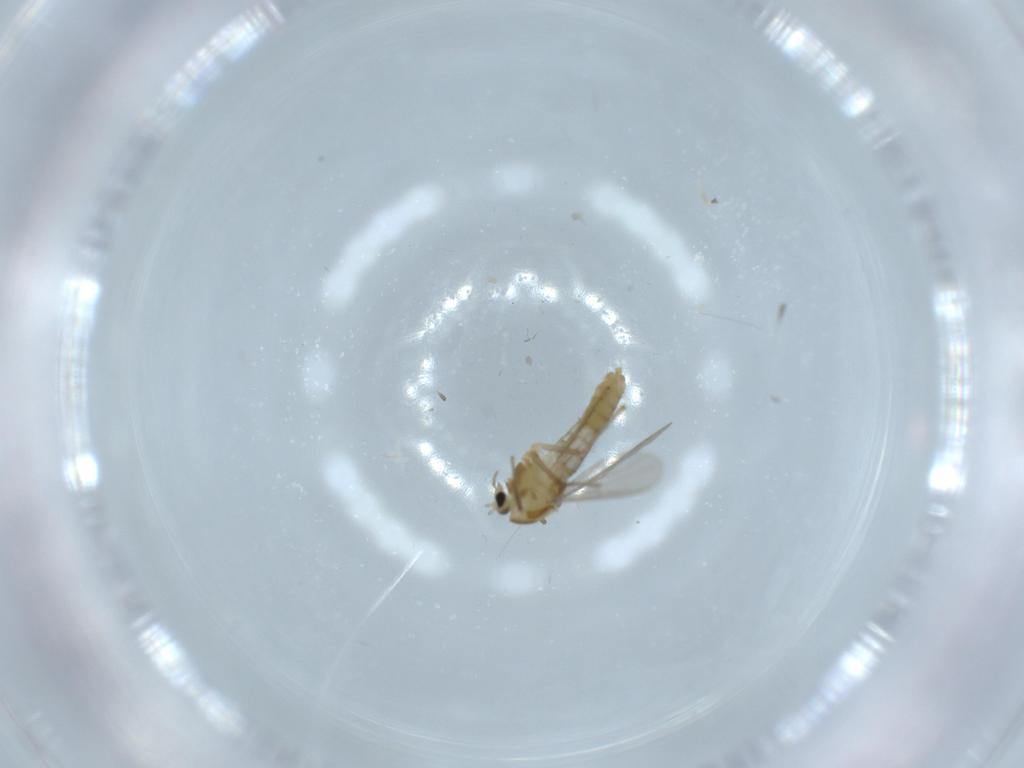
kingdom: Animalia
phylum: Arthropoda
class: Insecta
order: Diptera
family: Chironomidae
